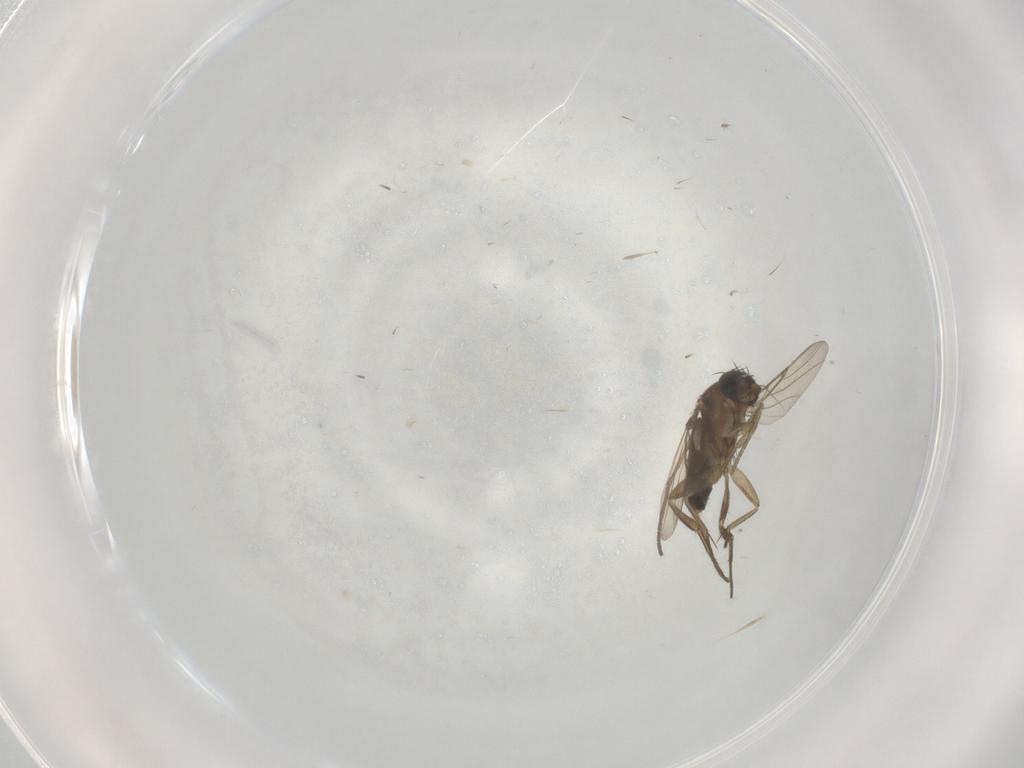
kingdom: Animalia
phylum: Arthropoda
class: Insecta
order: Diptera
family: Phoridae
